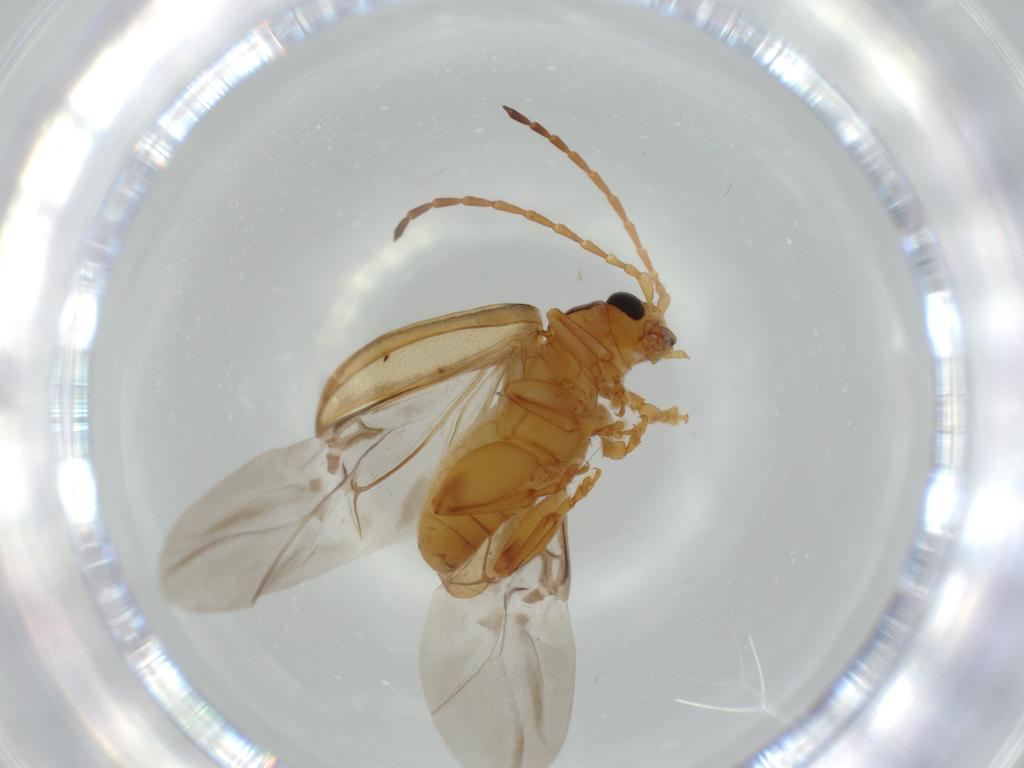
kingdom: Animalia
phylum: Arthropoda
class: Insecta
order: Coleoptera
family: Chrysomelidae
